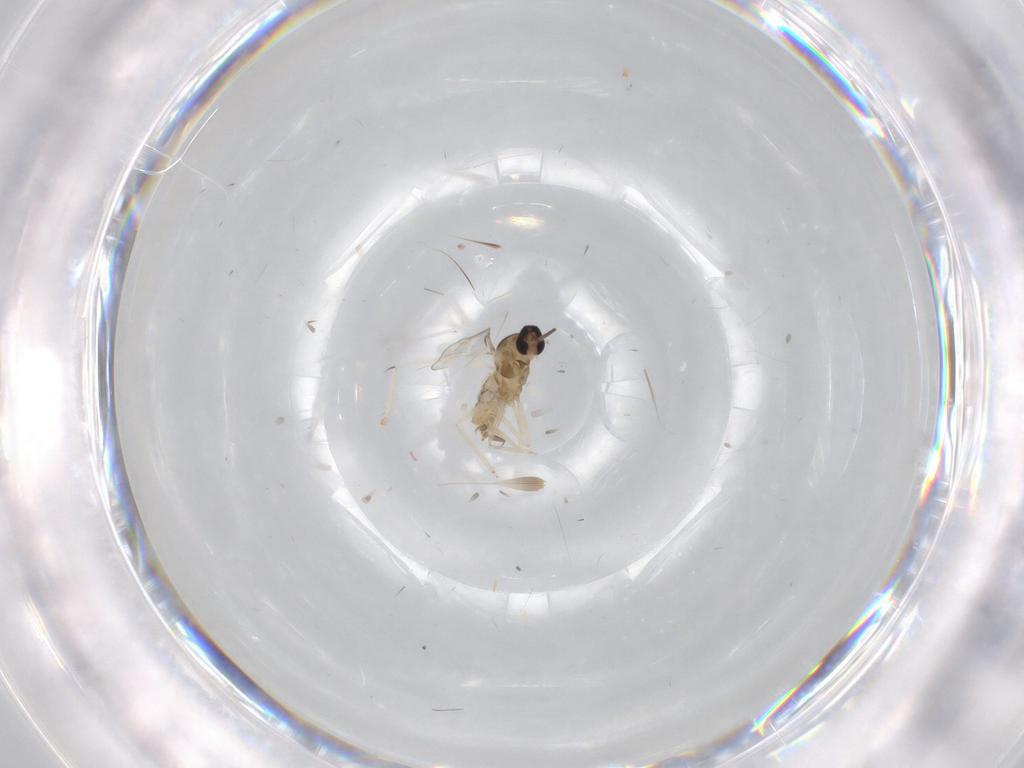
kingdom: Animalia
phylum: Arthropoda
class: Insecta
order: Diptera
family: Cecidomyiidae
